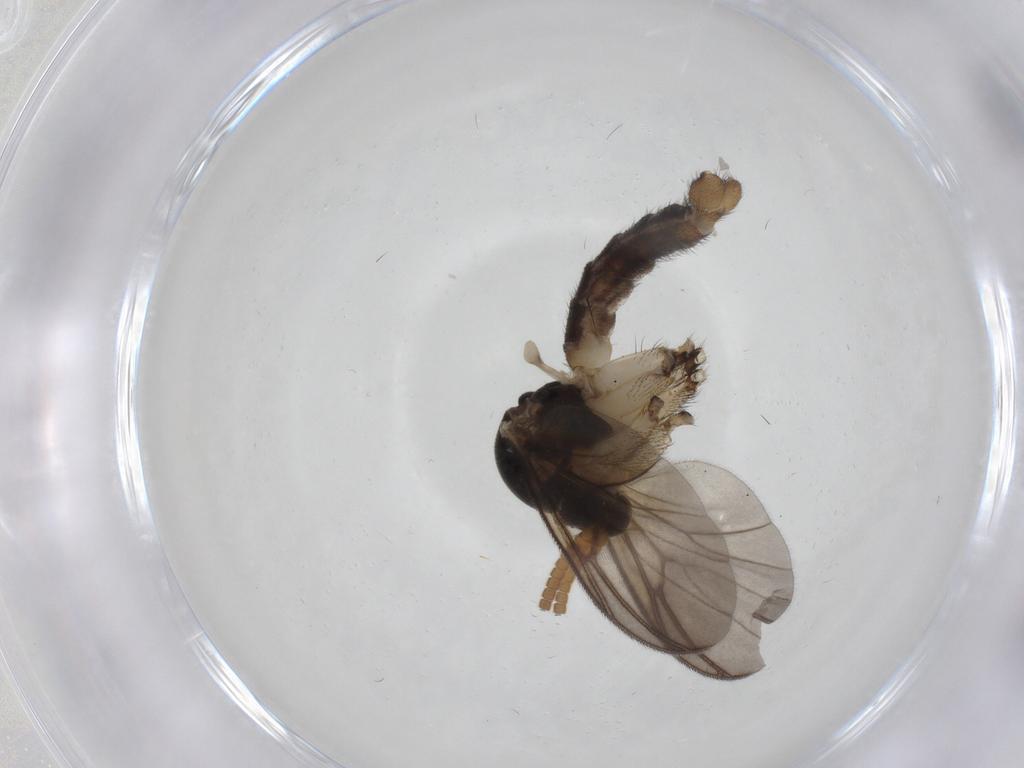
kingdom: Animalia
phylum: Arthropoda
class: Insecta
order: Diptera
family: Mycetophilidae
